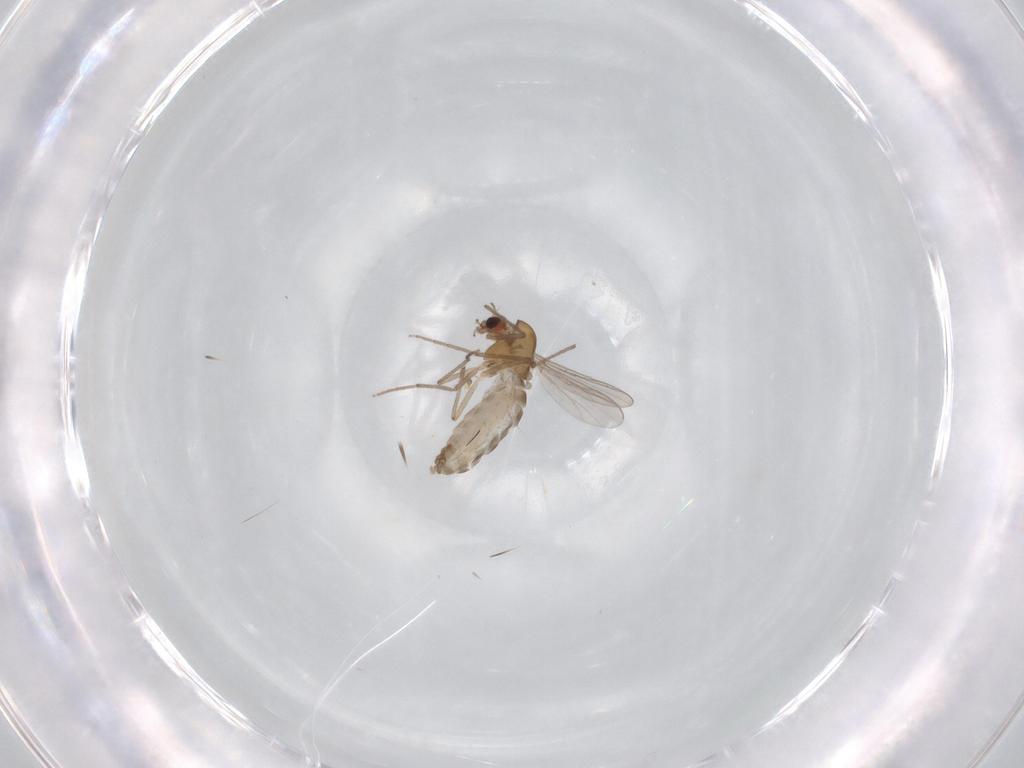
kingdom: Animalia
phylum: Arthropoda
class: Insecta
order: Diptera
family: Chironomidae
